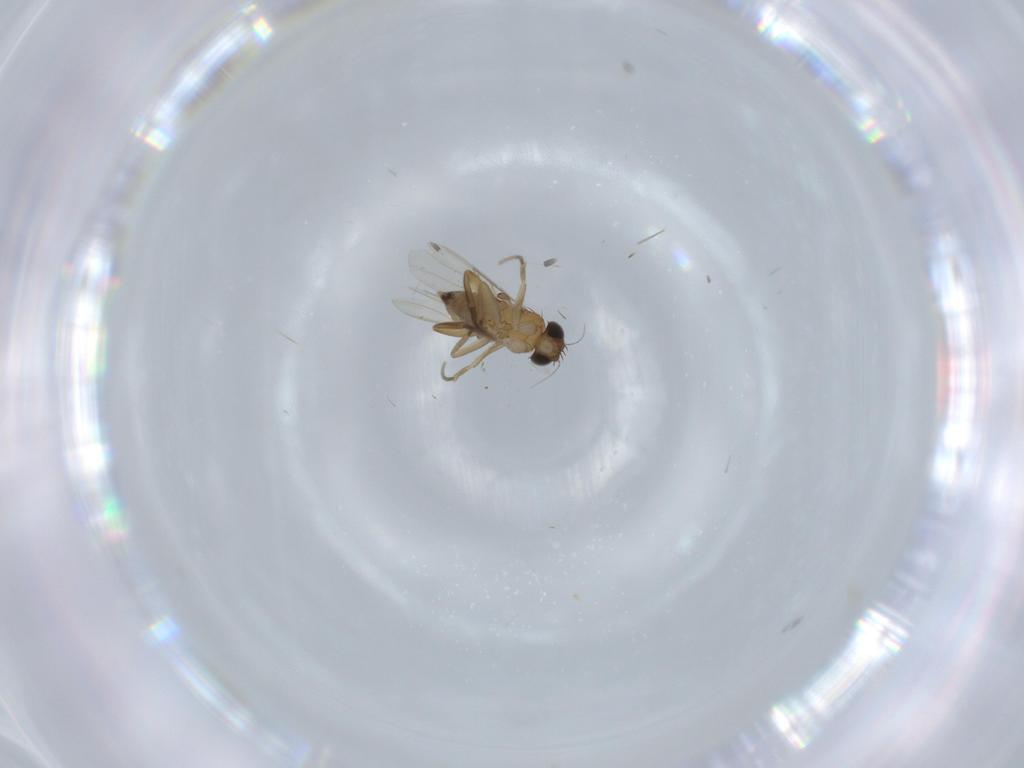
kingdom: Animalia
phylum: Arthropoda
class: Insecta
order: Diptera
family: Phoridae
